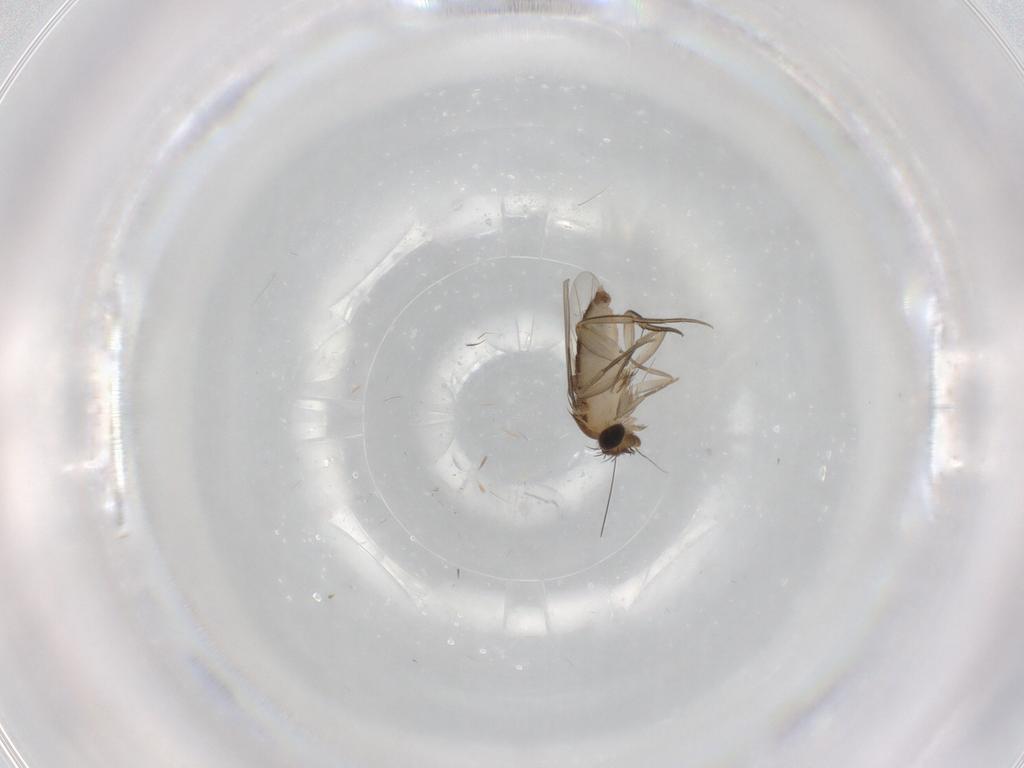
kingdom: Animalia
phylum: Arthropoda
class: Insecta
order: Diptera
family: Phoridae
